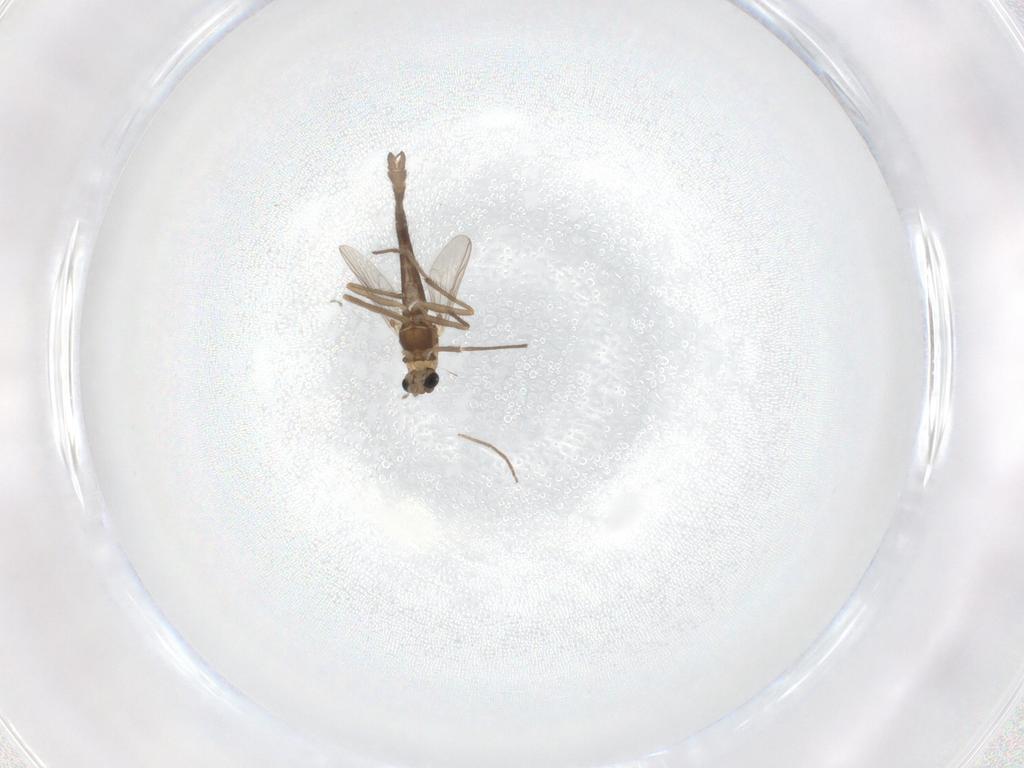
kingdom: Animalia
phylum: Arthropoda
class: Insecta
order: Diptera
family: Chironomidae
